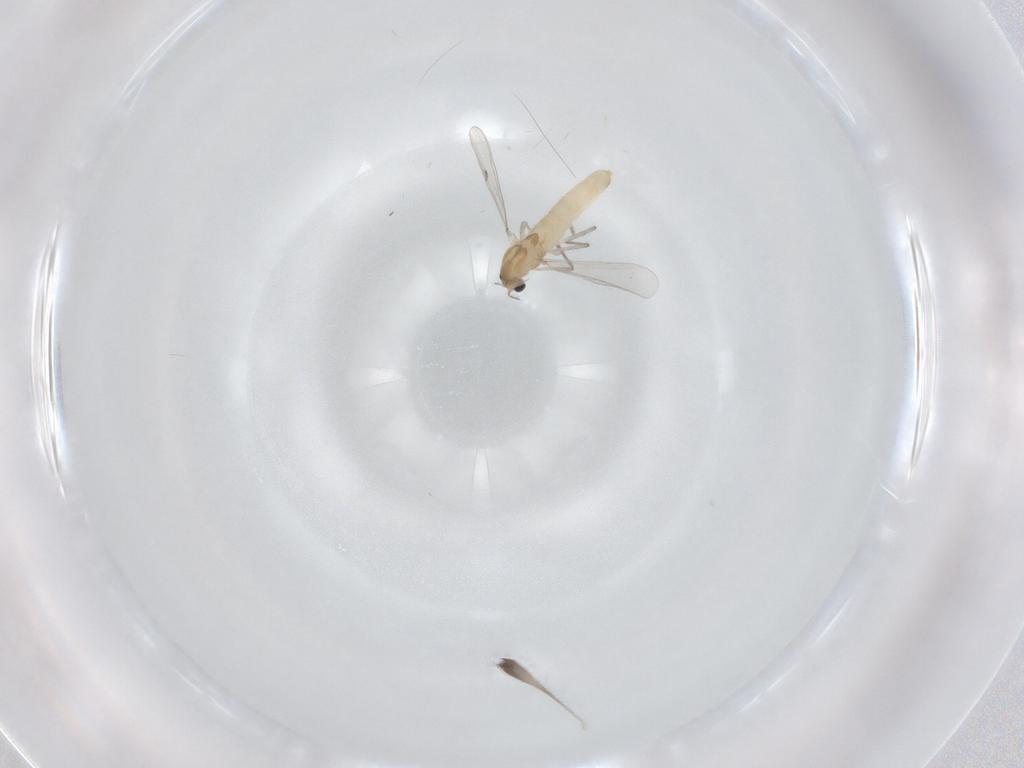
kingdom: Animalia
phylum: Arthropoda
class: Insecta
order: Diptera
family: Chironomidae
